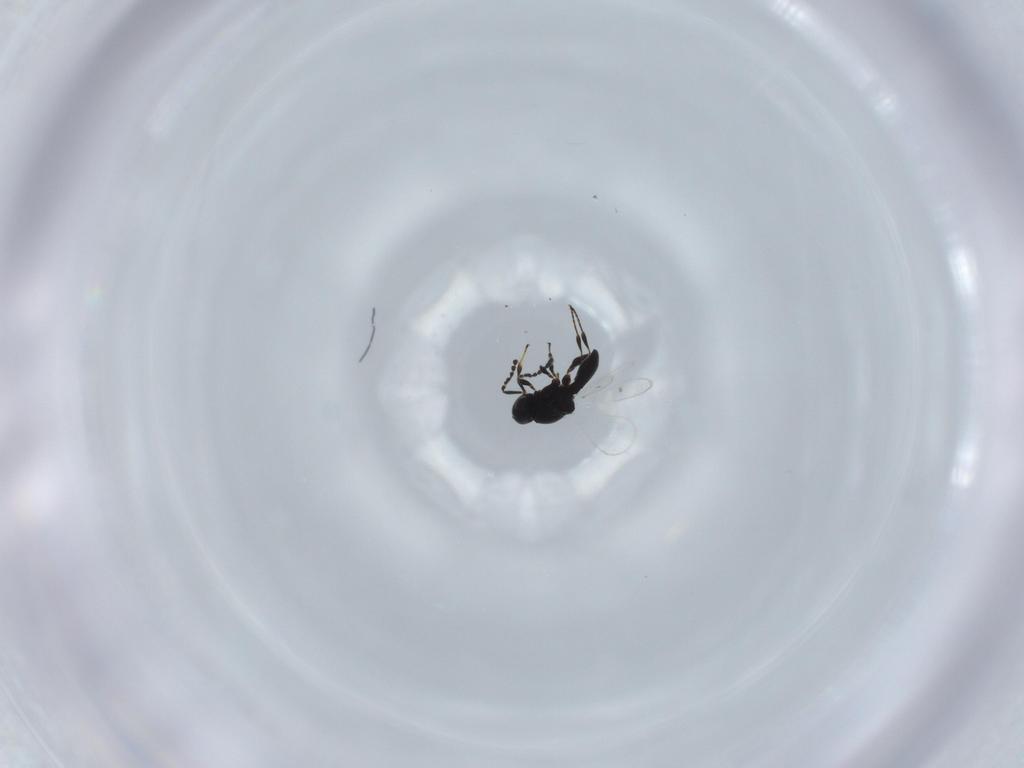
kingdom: Animalia
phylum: Arthropoda
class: Insecta
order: Hymenoptera
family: Platygastridae
